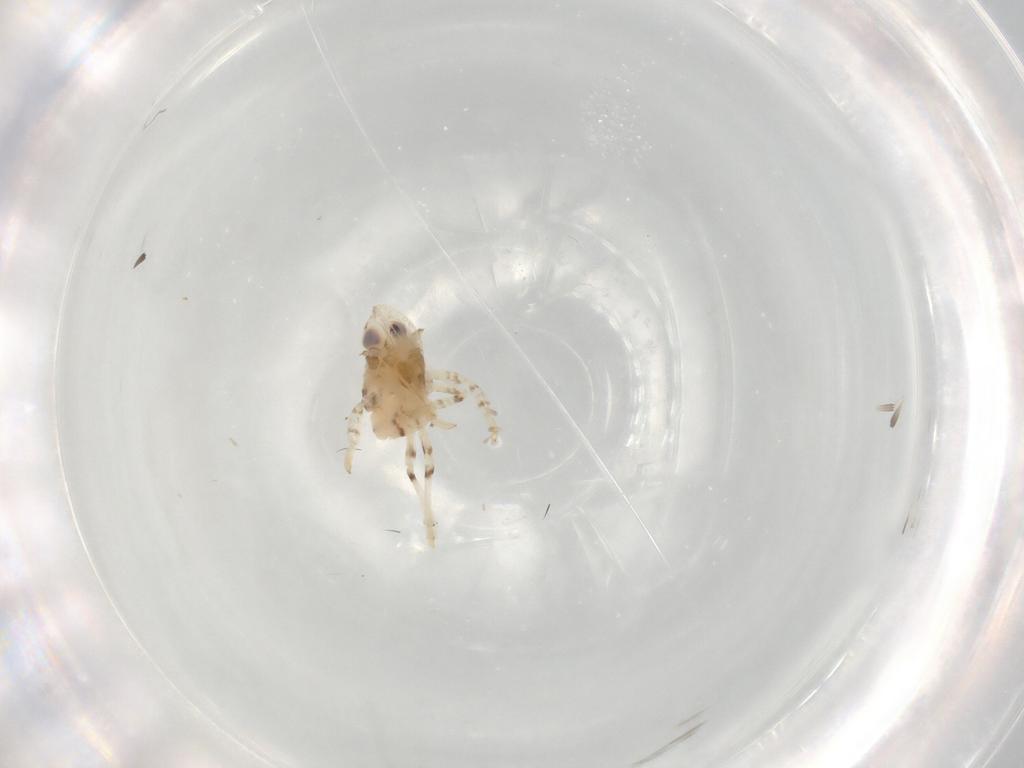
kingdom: Animalia
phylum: Arthropoda
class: Insecta
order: Hemiptera
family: Lophopidae
